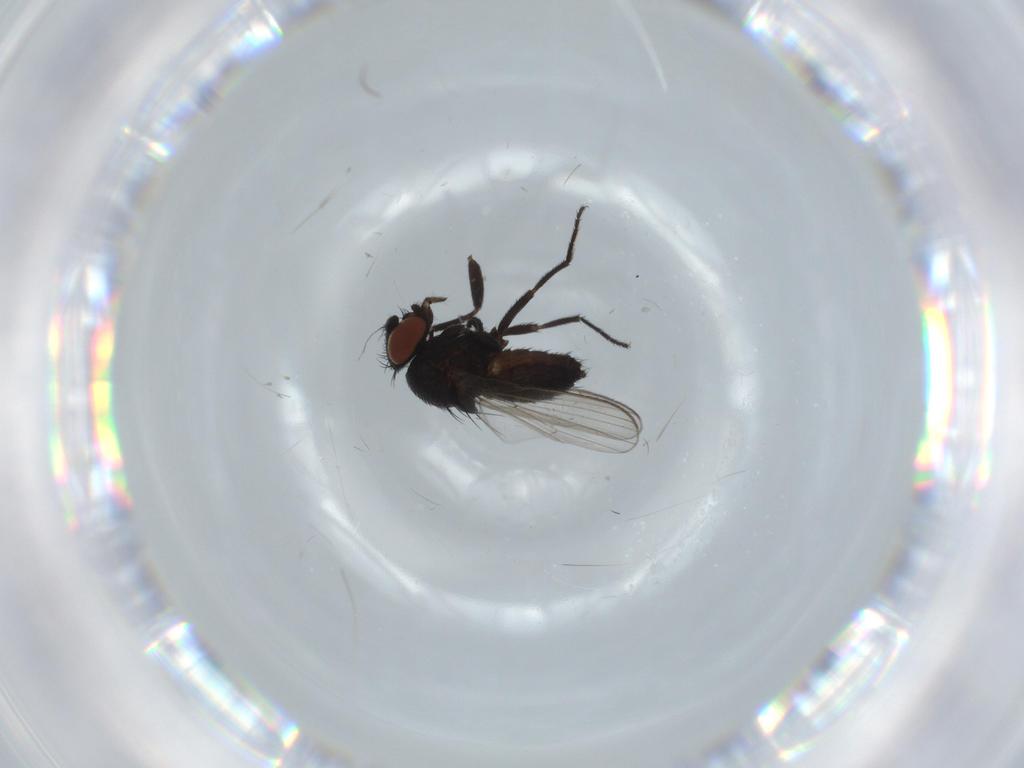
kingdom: Animalia
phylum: Arthropoda
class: Insecta
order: Diptera
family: Milichiidae
